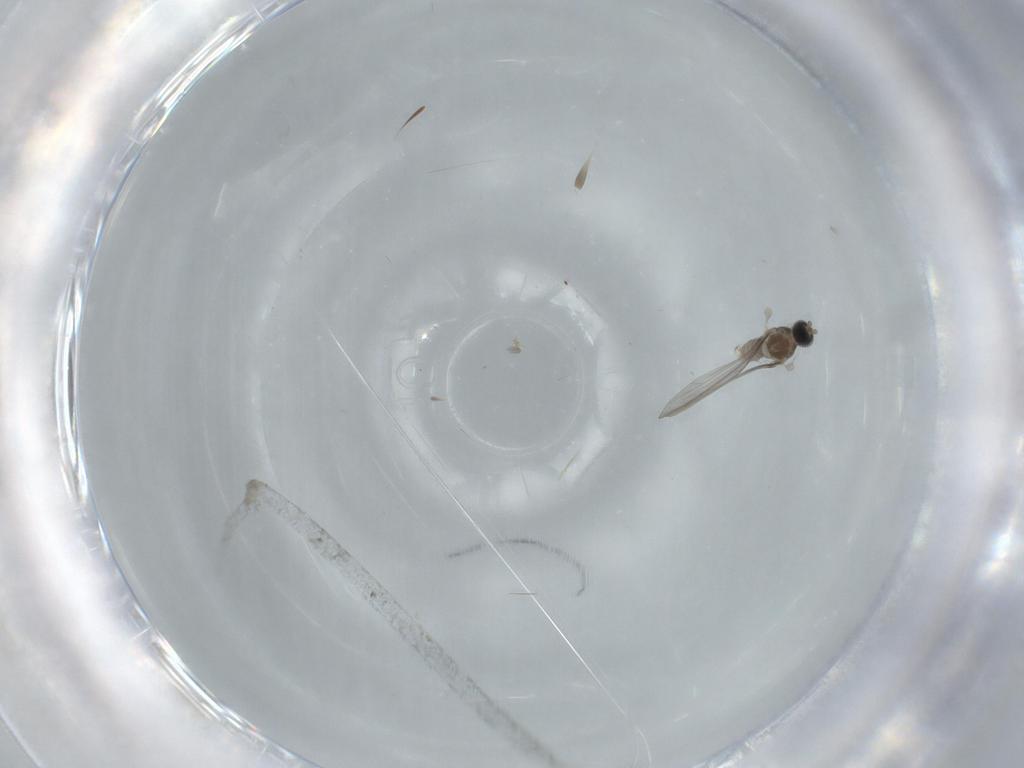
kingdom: Animalia
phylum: Arthropoda
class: Insecta
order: Diptera
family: Cecidomyiidae
